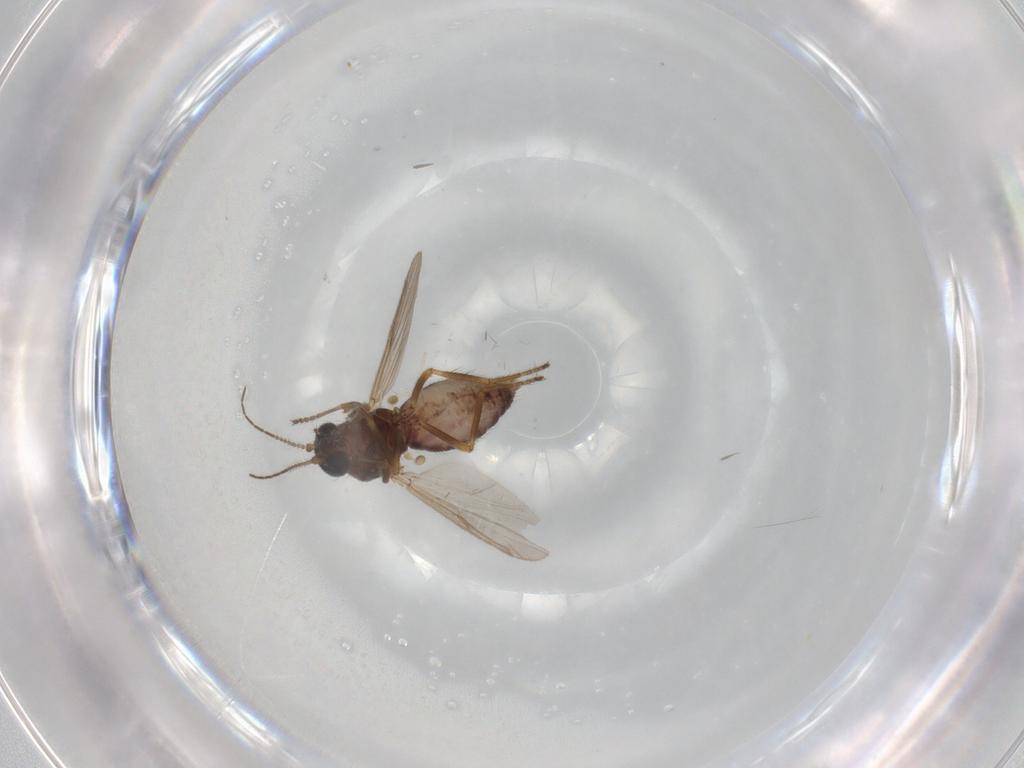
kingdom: Animalia
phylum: Arthropoda
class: Insecta
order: Diptera
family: Ceratopogonidae
